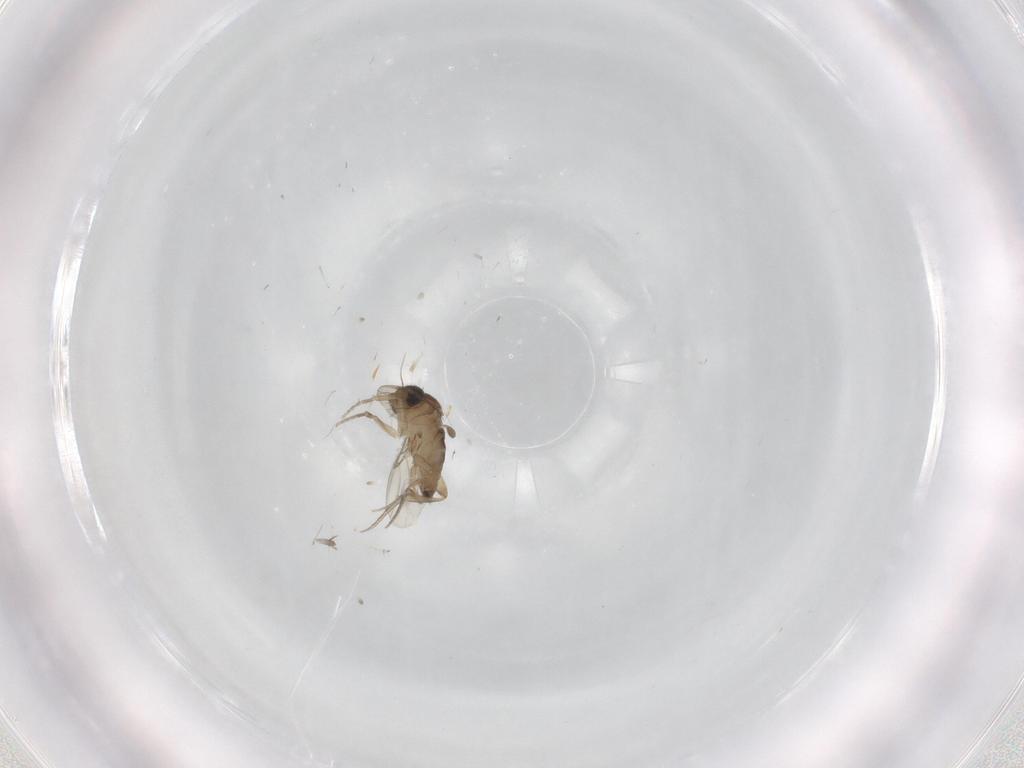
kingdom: Animalia
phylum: Arthropoda
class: Insecta
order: Diptera
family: Phoridae
